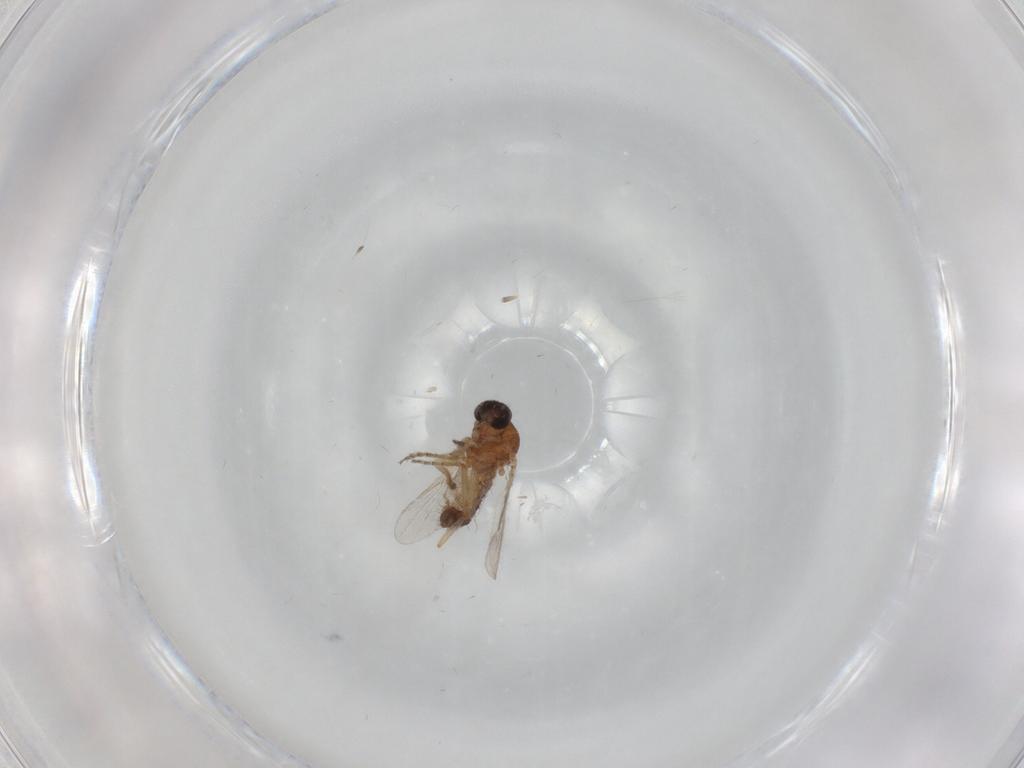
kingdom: Animalia
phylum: Arthropoda
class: Insecta
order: Diptera
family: Ceratopogonidae
